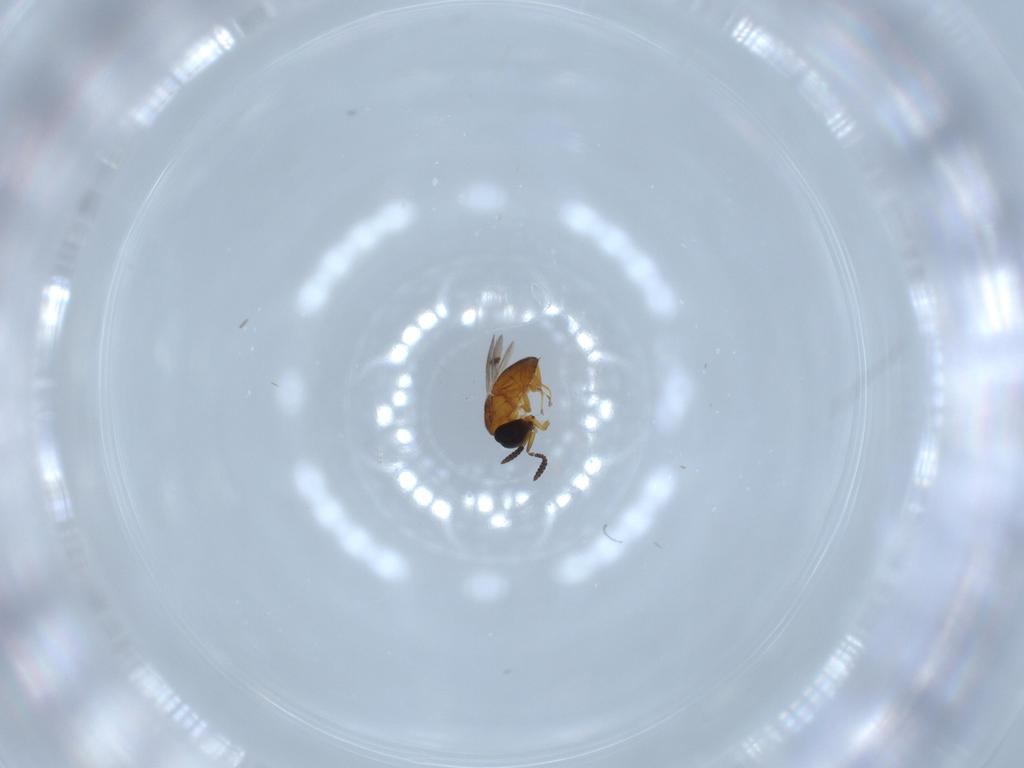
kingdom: Animalia
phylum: Arthropoda
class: Insecta
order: Hymenoptera
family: Scelionidae
